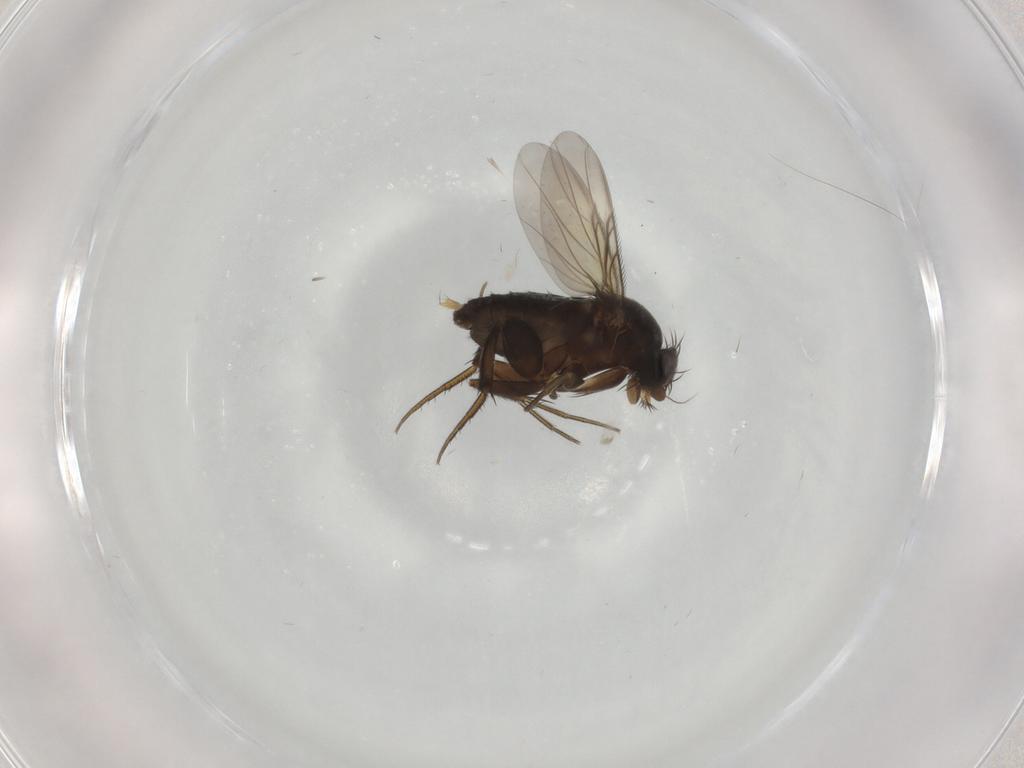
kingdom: Animalia
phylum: Arthropoda
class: Insecta
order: Diptera
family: Phoridae
